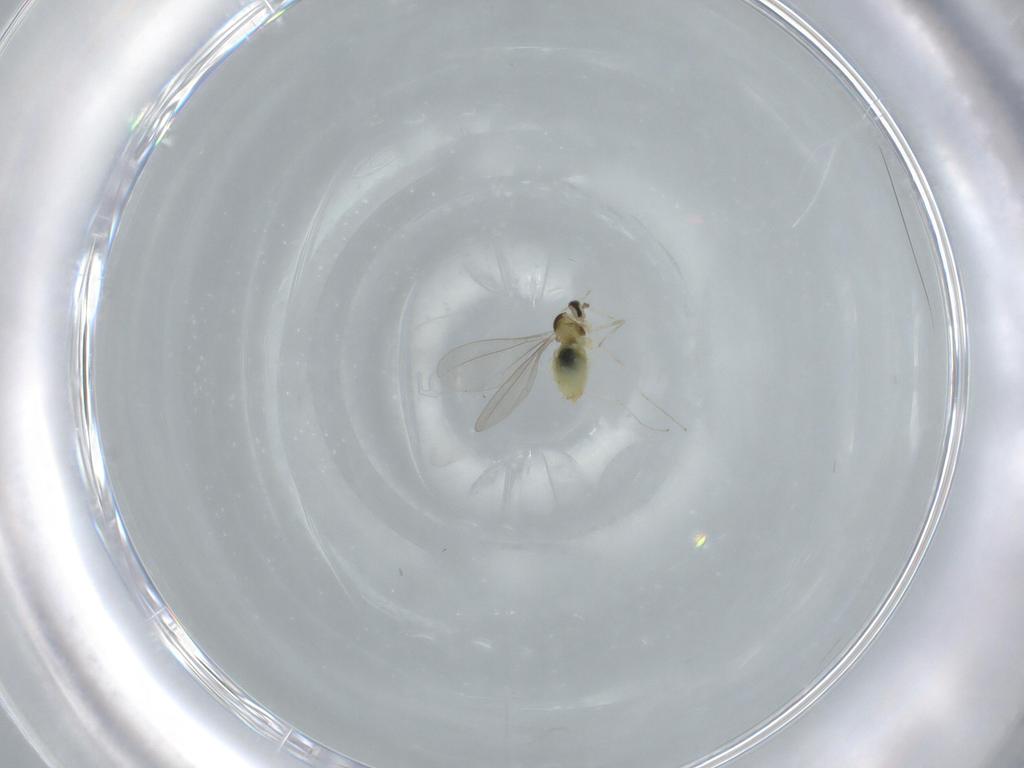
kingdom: Animalia
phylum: Arthropoda
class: Insecta
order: Diptera
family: Cecidomyiidae
